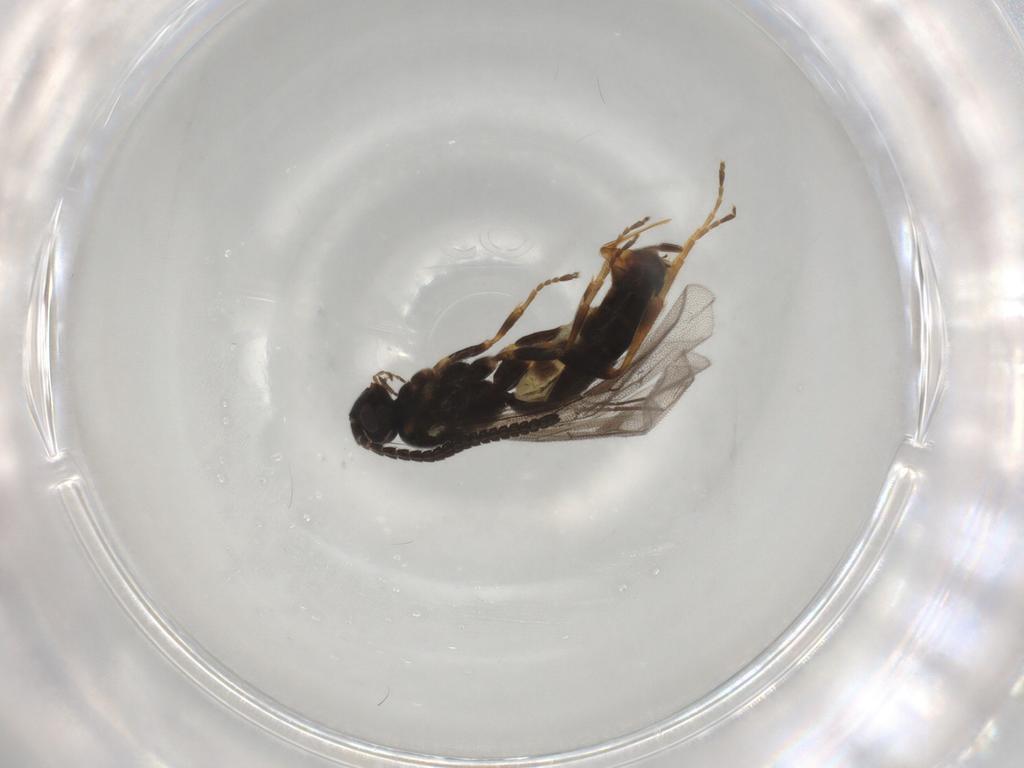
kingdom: Animalia
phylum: Arthropoda
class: Insecta
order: Hymenoptera
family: Ichneumonidae
